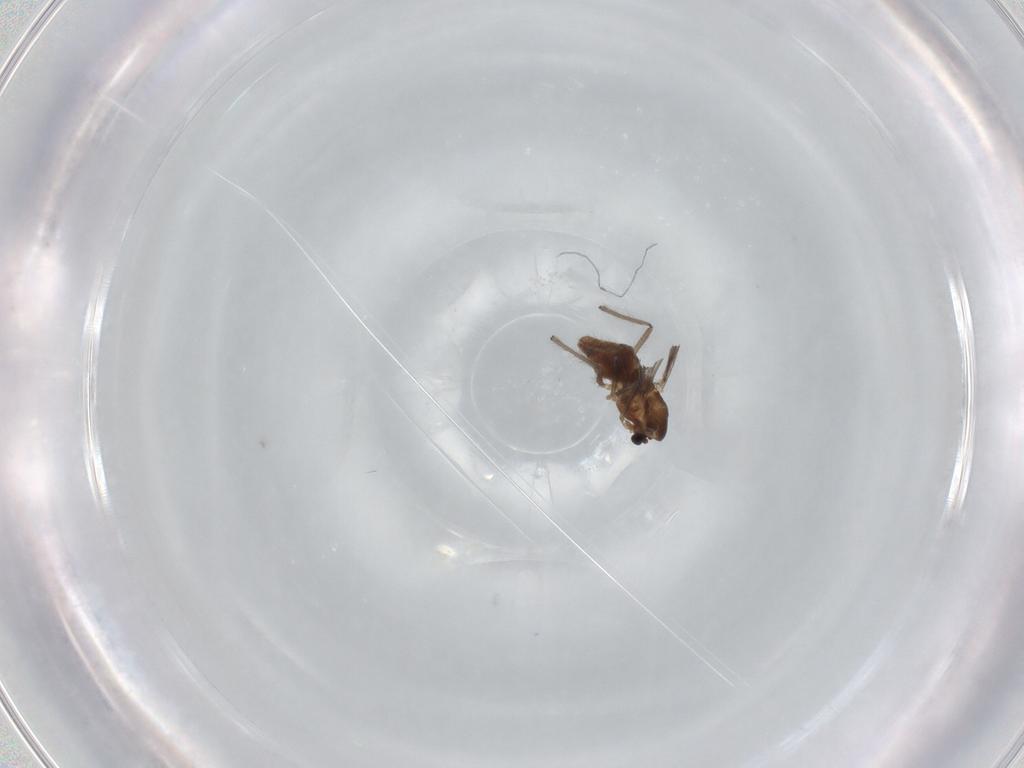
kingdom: Animalia
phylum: Arthropoda
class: Insecta
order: Diptera
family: Chironomidae
